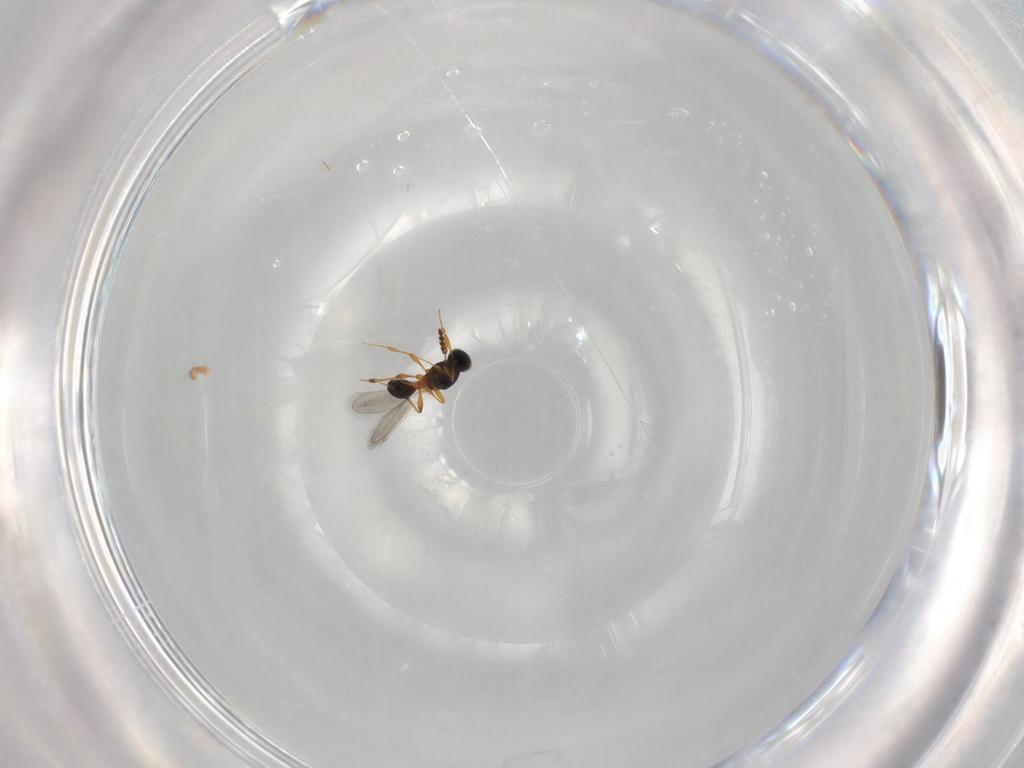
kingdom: Animalia
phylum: Arthropoda
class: Insecta
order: Hymenoptera
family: Platygastridae
